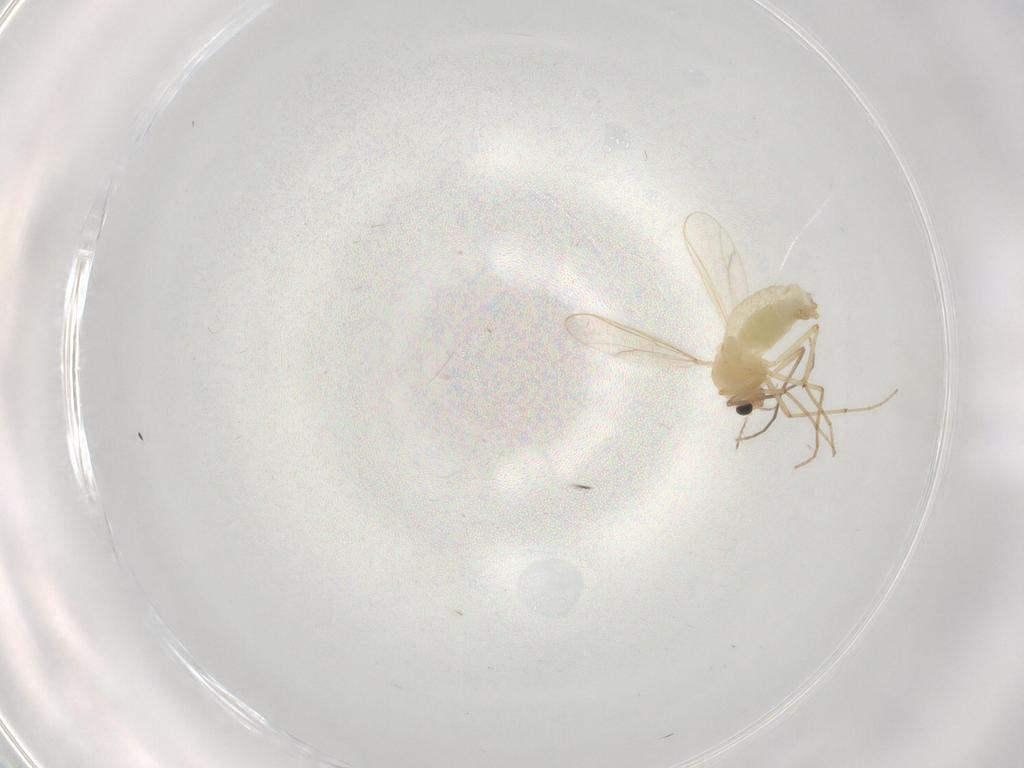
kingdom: Animalia
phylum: Arthropoda
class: Insecta
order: Diptera
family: Chironomidae
